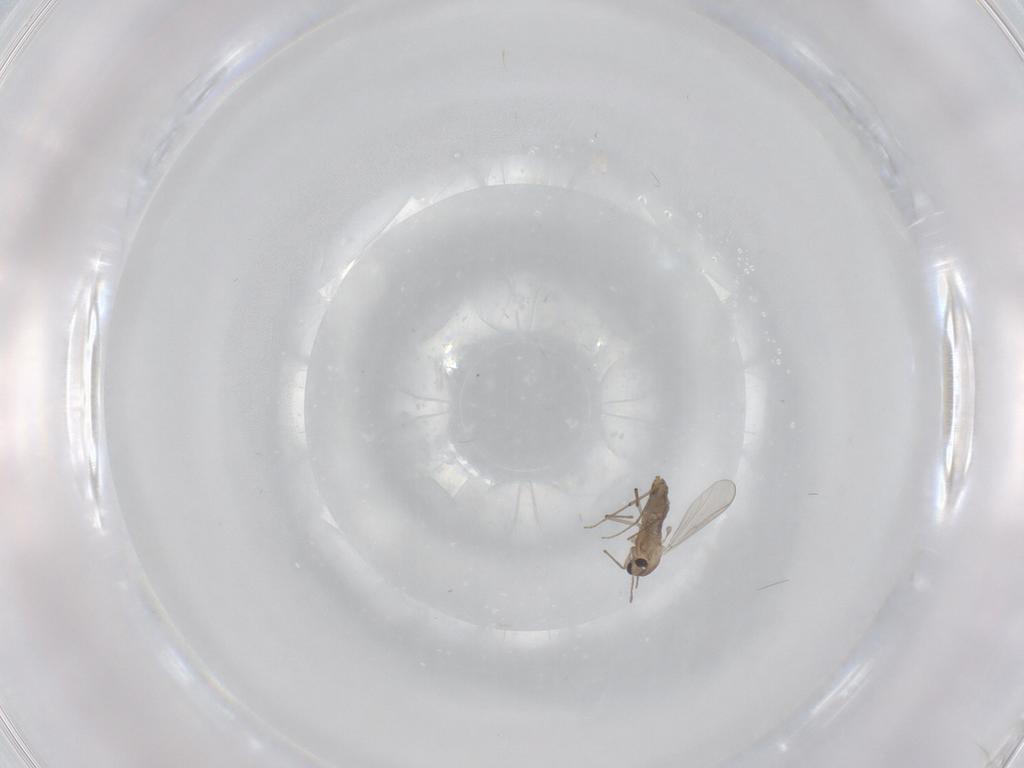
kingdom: Animalia
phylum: Arthropoda
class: Insecta
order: Diptera
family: Chironomidae
